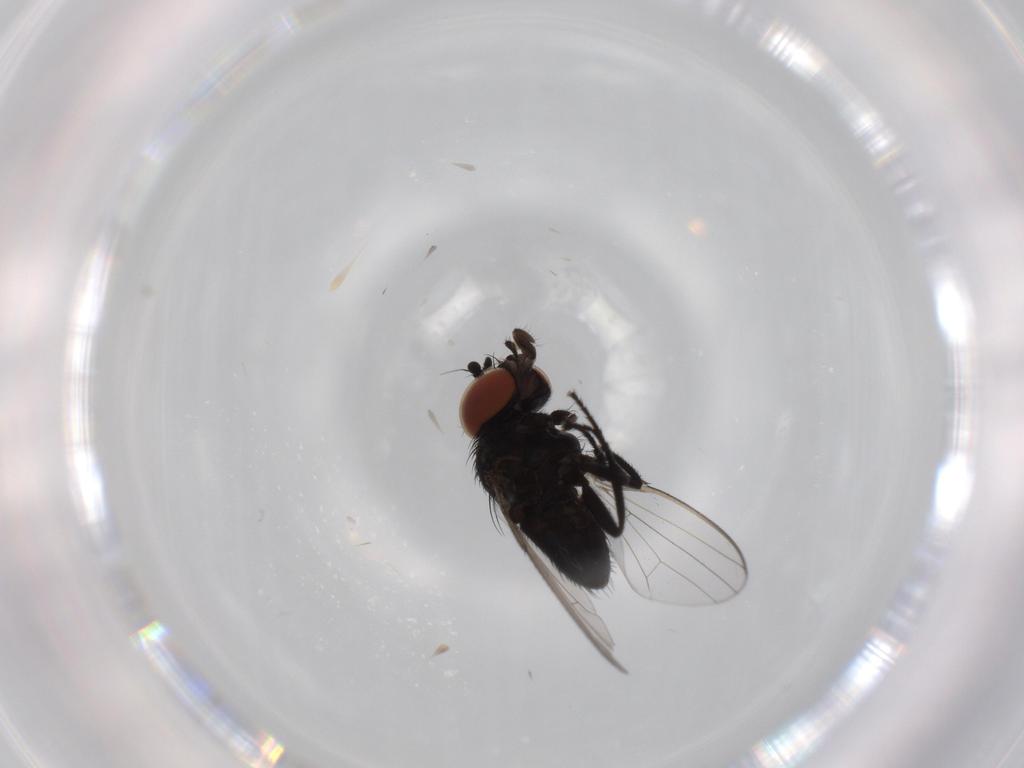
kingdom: Animalia
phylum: Arthropoda
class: Insecta
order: Diptera
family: Milichiidae
